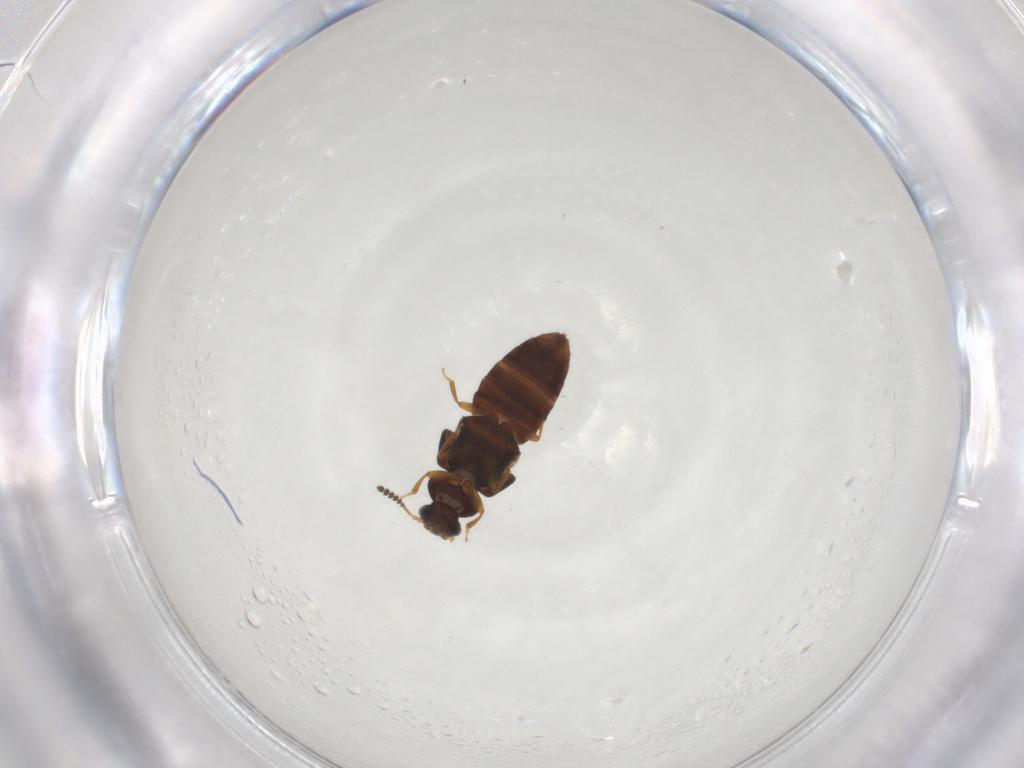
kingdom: Animalia
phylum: Arthropoda
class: Insecta
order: Coleoptera
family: Staphylinidae
